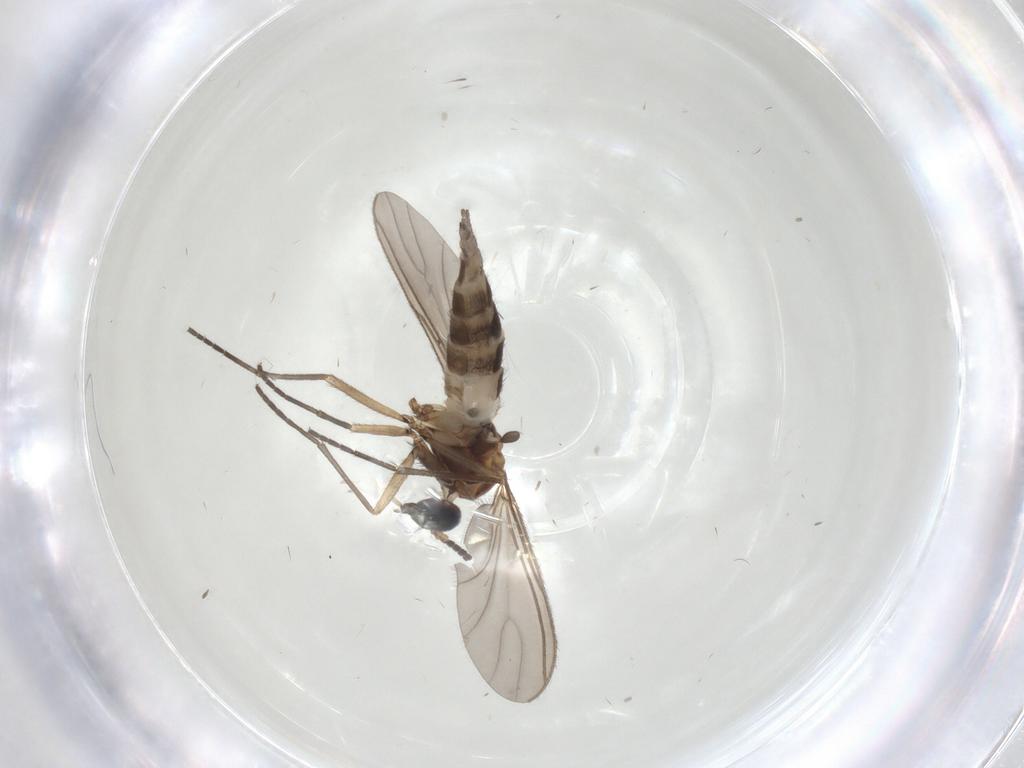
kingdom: Animalia
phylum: Arthropoda
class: Insecta
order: Diptera
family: Sciaridae
